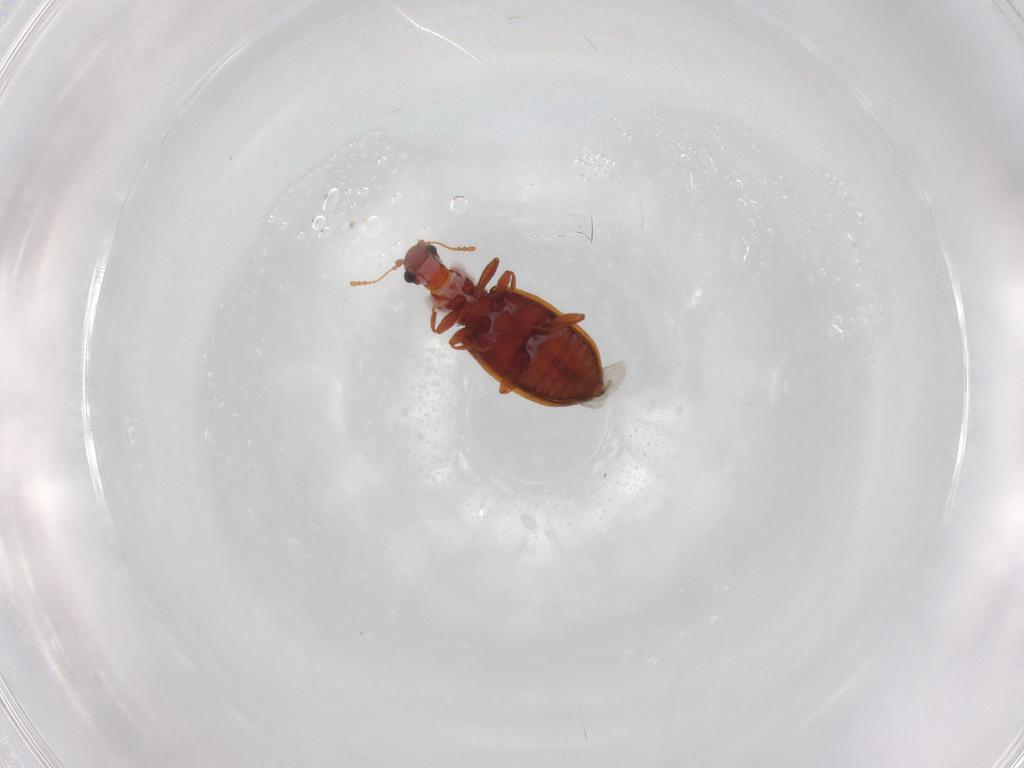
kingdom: Animalia
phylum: Arthropoda
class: Insecta
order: Coleoptera
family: Latridiidae
